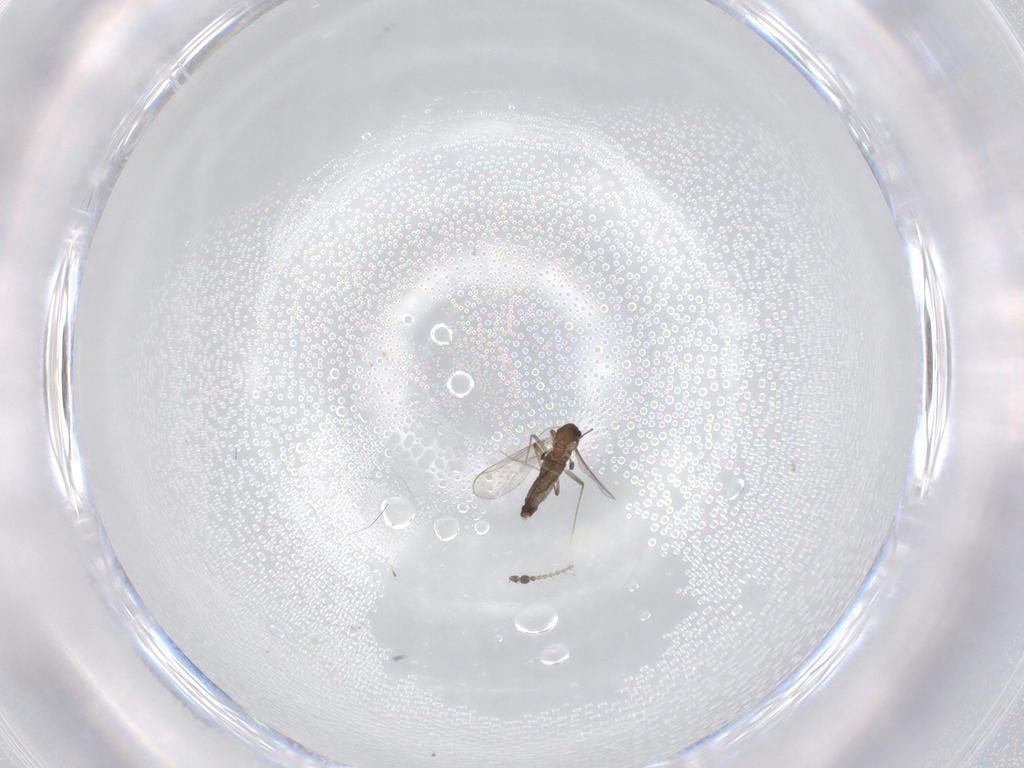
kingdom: Animalia
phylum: Arthropoda
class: Insecta
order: Diptera
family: Chironomidae
